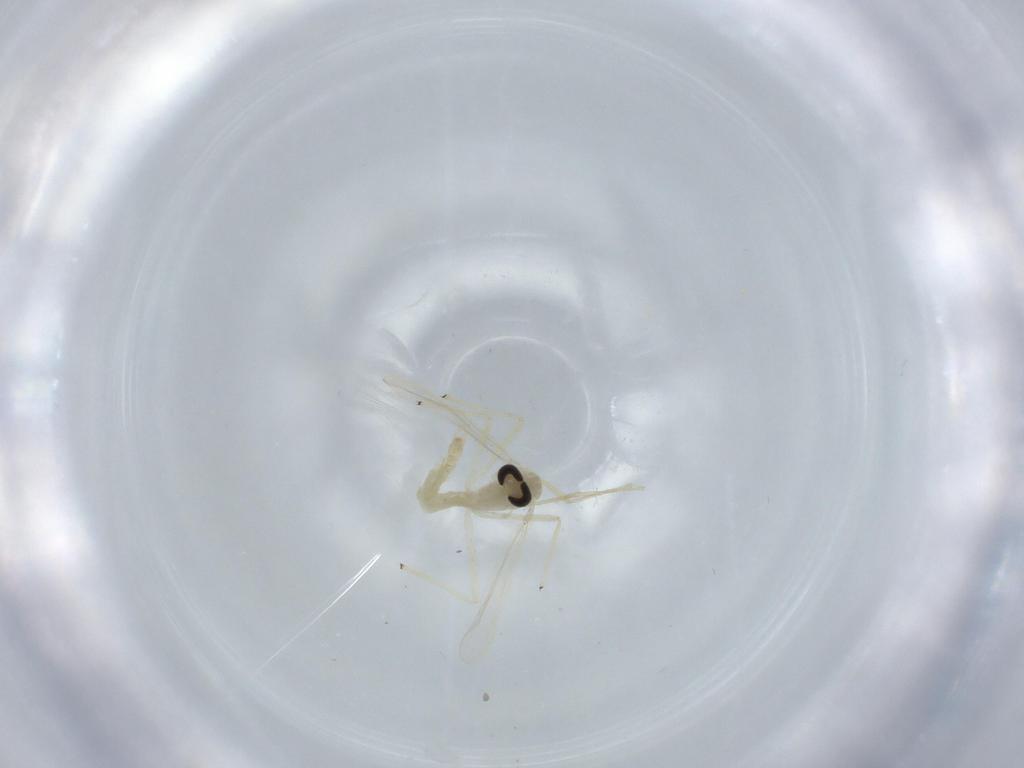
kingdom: Animalia
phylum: Arthropoda
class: Insecta
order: Diptera
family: Chironomidae
